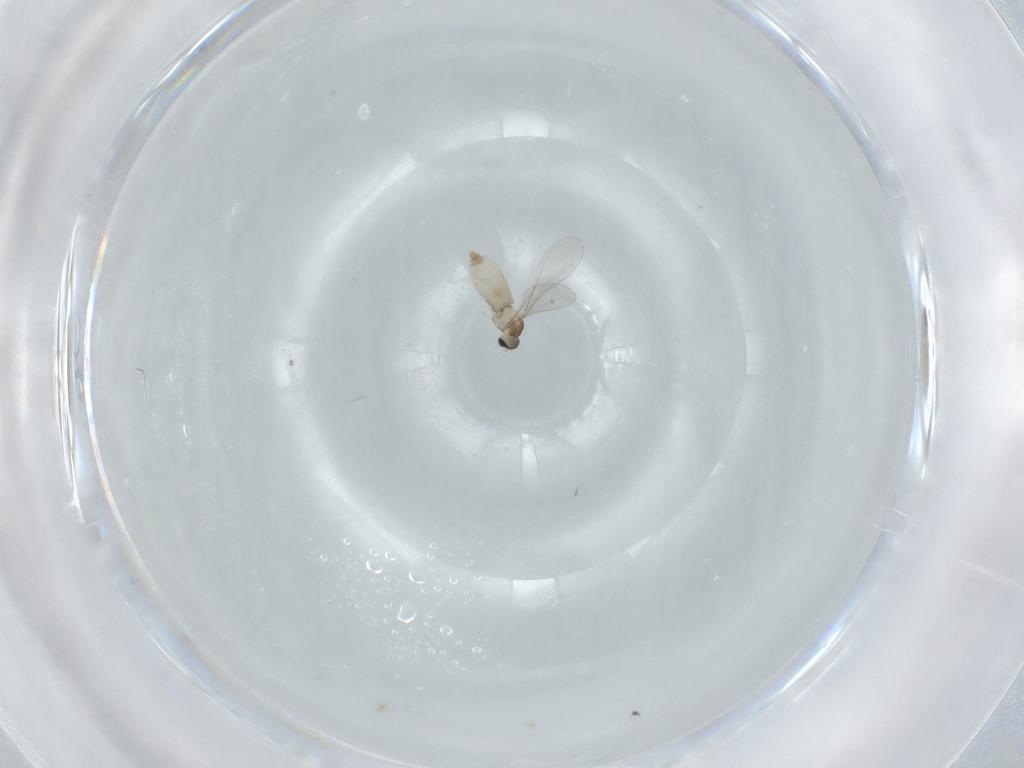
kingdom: Animalia
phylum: Arthropoda
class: Insecta
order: Diptera
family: Odiniidae
